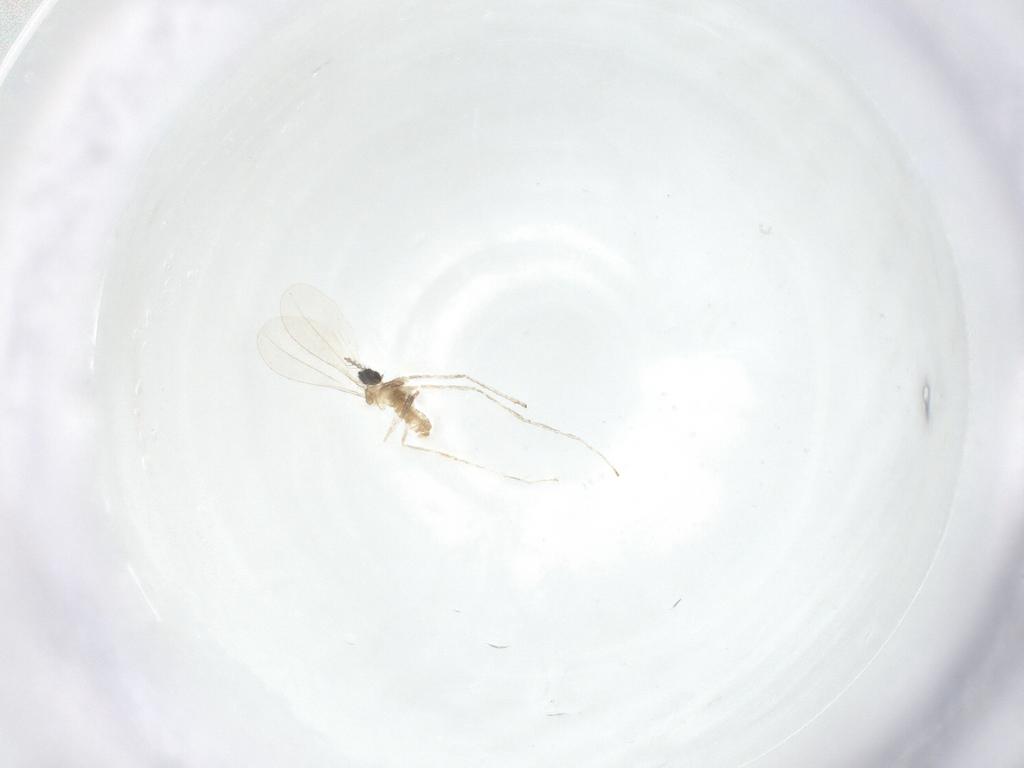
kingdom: Animalia
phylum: Arthropoda
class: Insecta
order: Diptera
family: Cecidomyiidae
